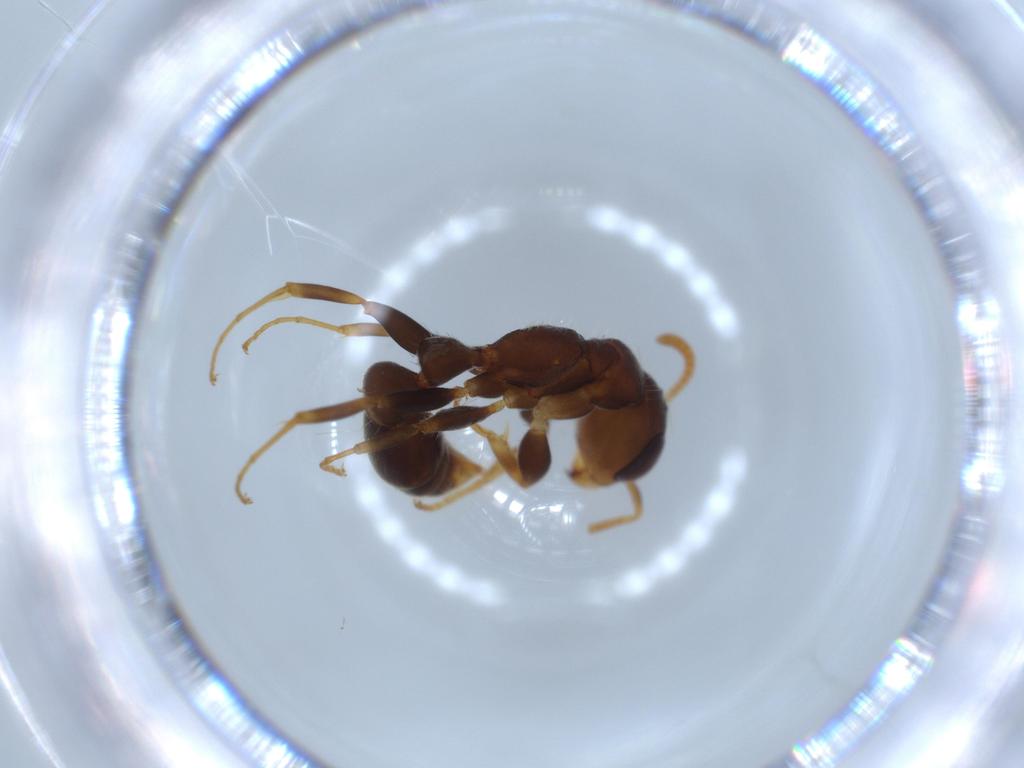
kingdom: Animalia
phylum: Arthropoda
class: Insecta
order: Hymenoptera
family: Formicidae
